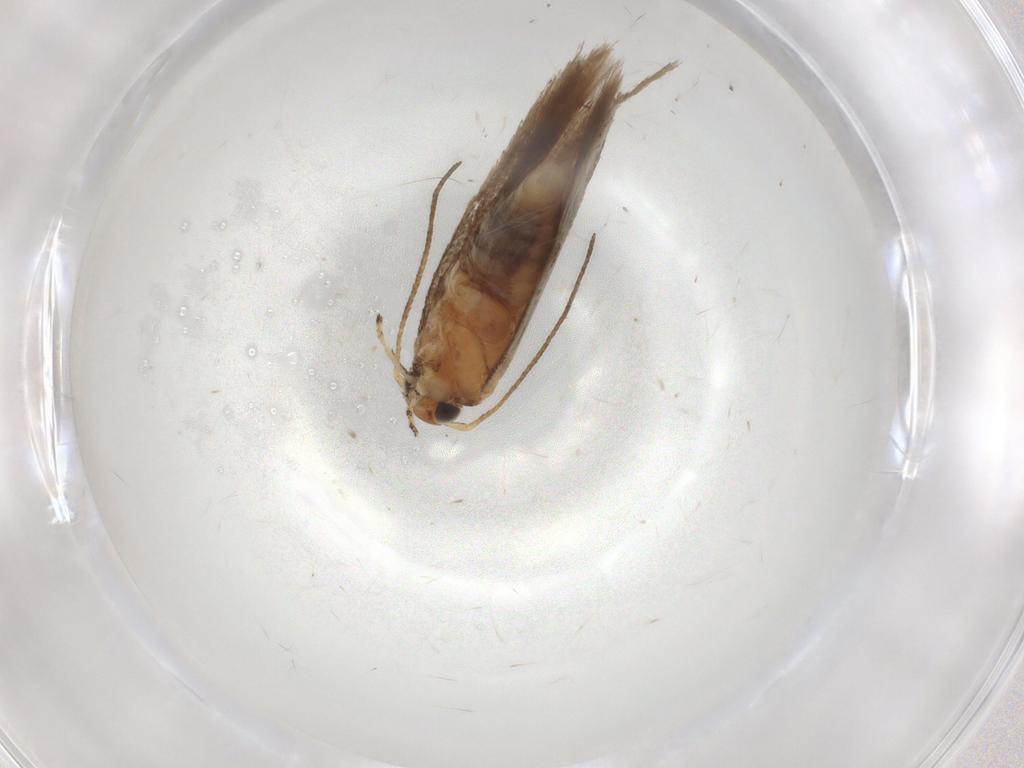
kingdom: Animalia
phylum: Arthropoda
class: Insecta
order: Lepidoptera
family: Gelechiidae
